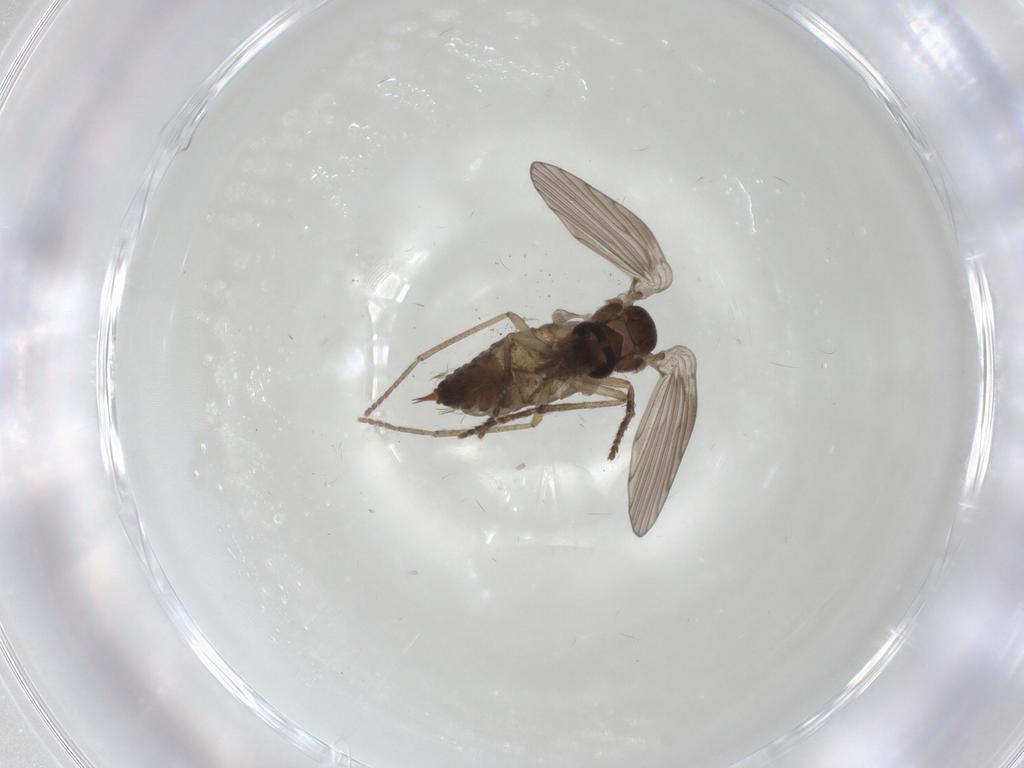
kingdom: Animalia
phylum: Arthropoda
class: Insecta
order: Diptera
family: Psychodidae
